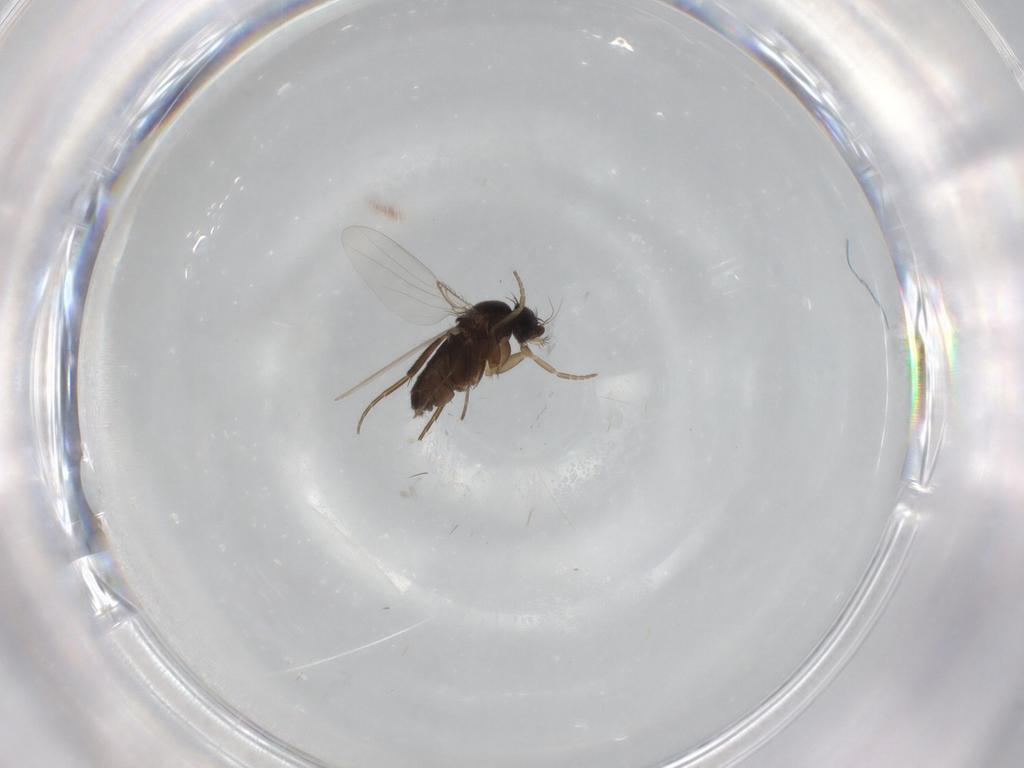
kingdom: Animalia
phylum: Arthropoda
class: Insecta
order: Diptera
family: Phoridae
